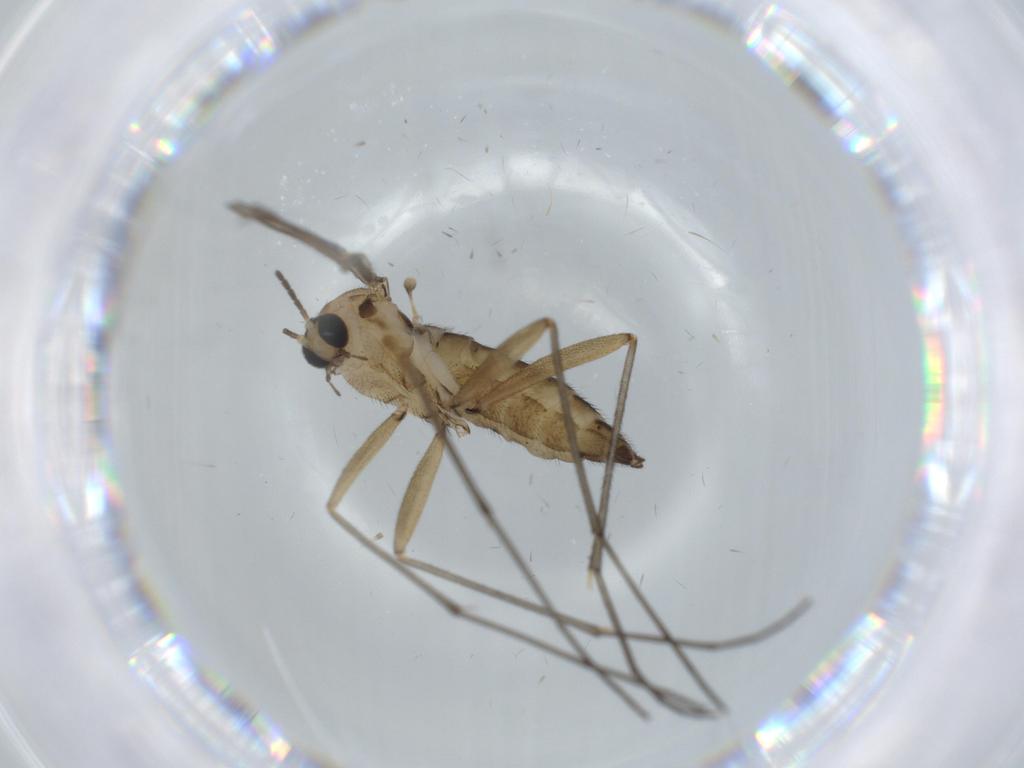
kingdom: Animalia
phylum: Arthropoda
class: Insecta
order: Diptera
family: Sciaridae
